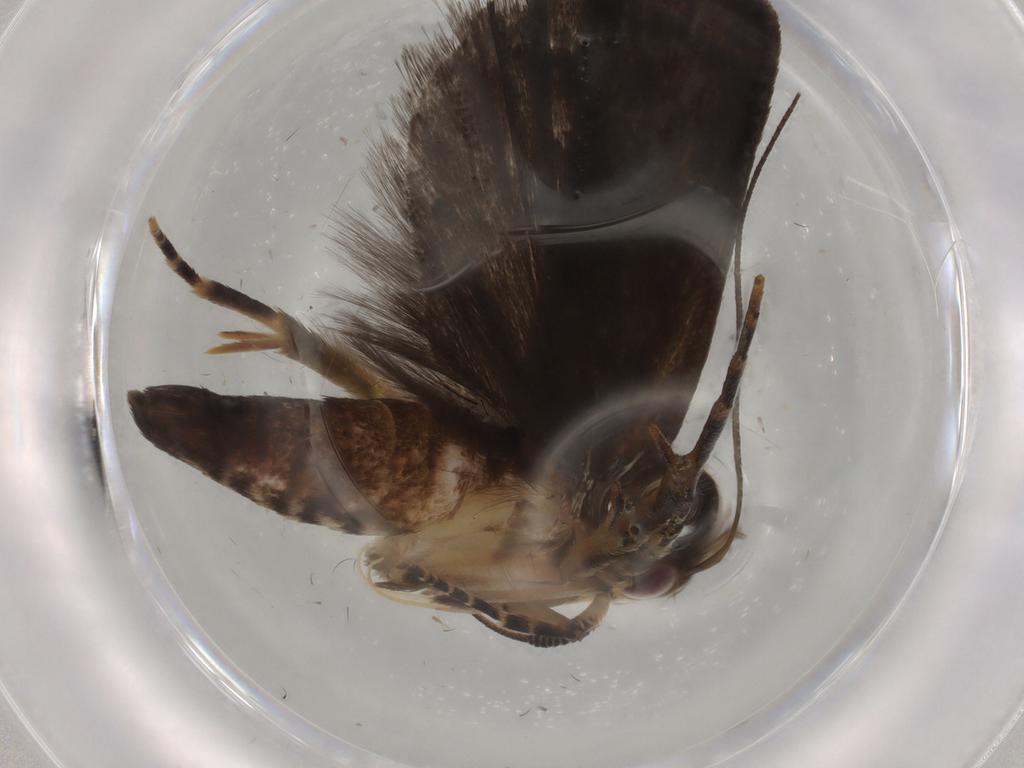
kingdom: Animalia
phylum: Arthropoda
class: Insecta
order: Lepidoptera
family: Gelechiidae
